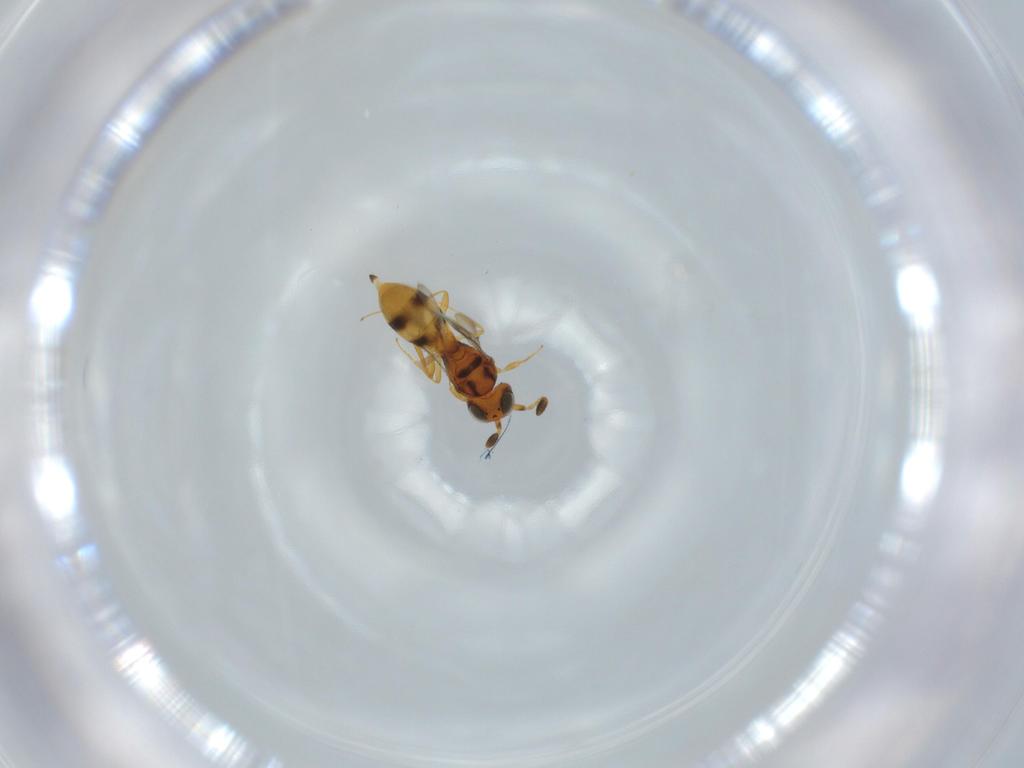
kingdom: Animalia
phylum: Arthropoda
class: Insecta
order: Hymenoptera
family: Scelionidae
